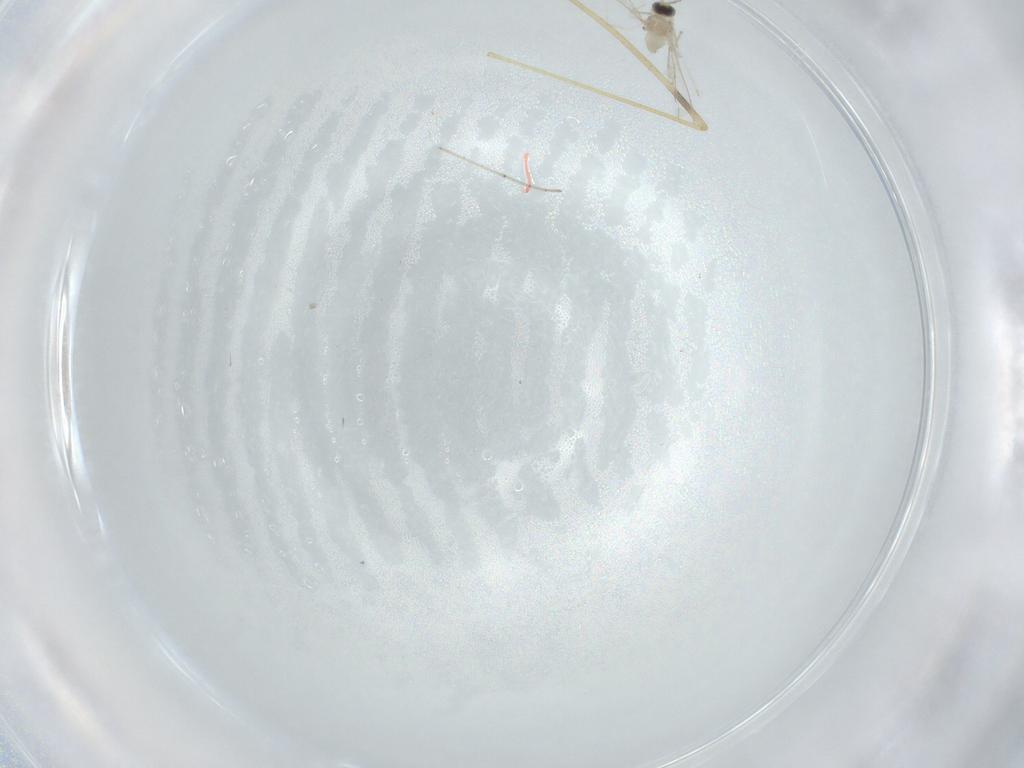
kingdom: Animalia
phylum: Arthropoda
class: Insecta
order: Diptera
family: Cecidomyiidae
